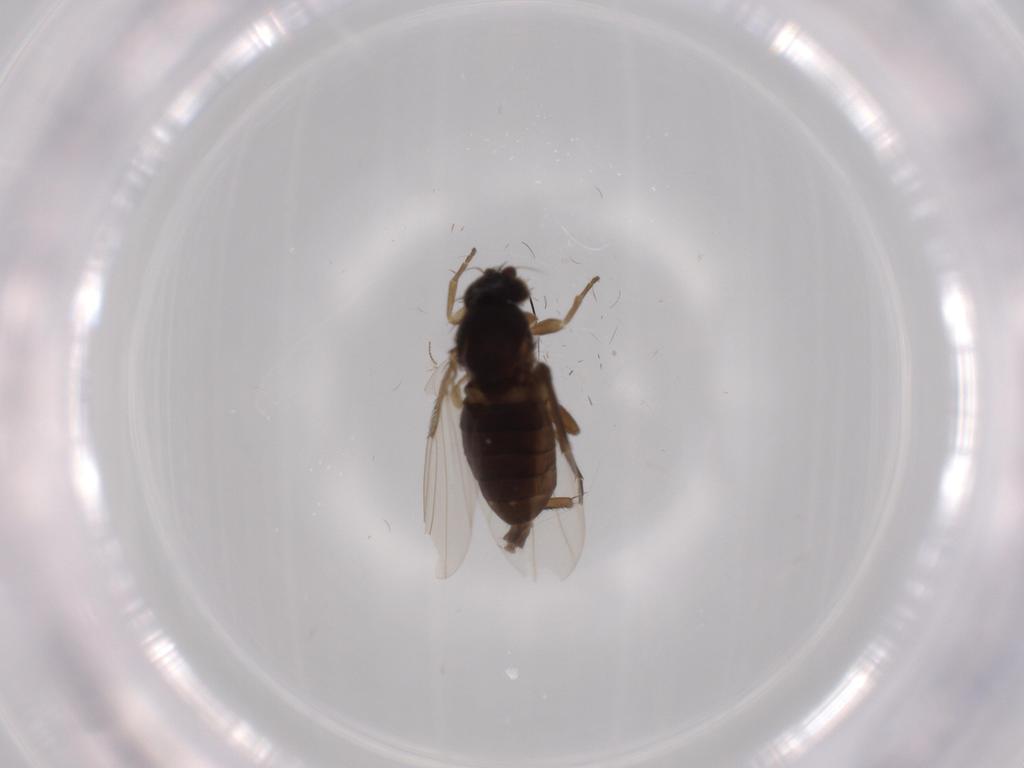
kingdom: Animalia
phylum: Arthropoda
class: Insecta
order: Diptera
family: Phoridae
